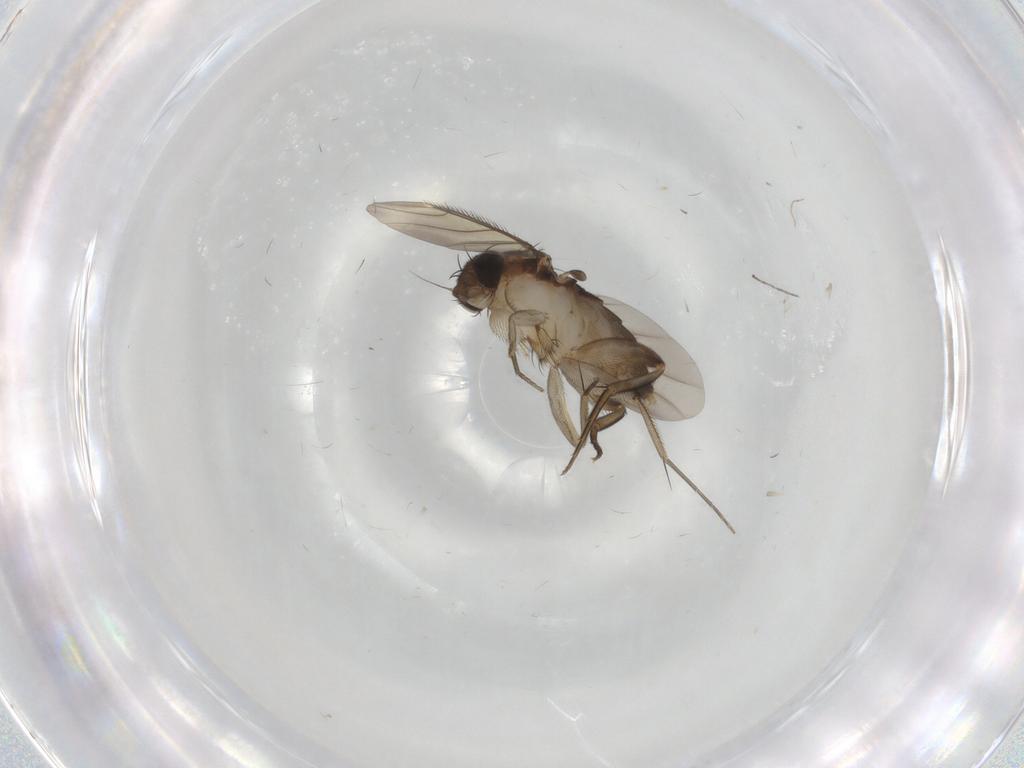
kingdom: Animalia
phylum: Arthropoda
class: Insecta
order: Diptera
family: Phoridae
